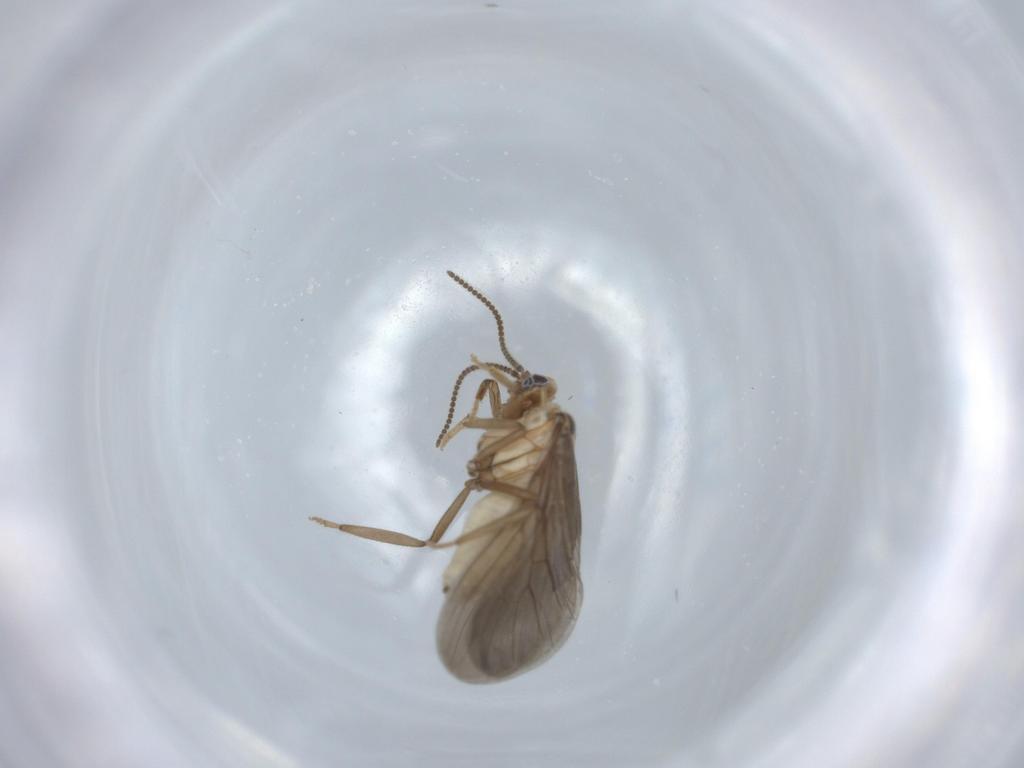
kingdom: Animalia
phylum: Arthropoda
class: Insecta
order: Neuroptera
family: Coniopterygidae
